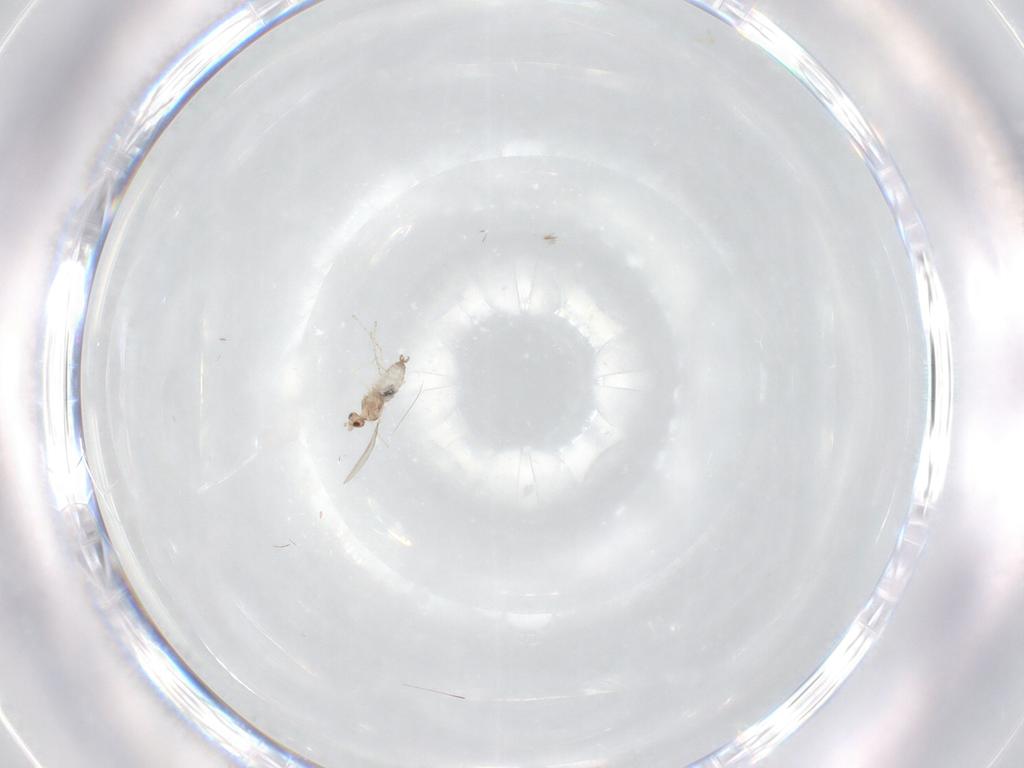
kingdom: Animalia
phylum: Arthropoda
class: Insecta
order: Diptera
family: Cecidomyiidae
